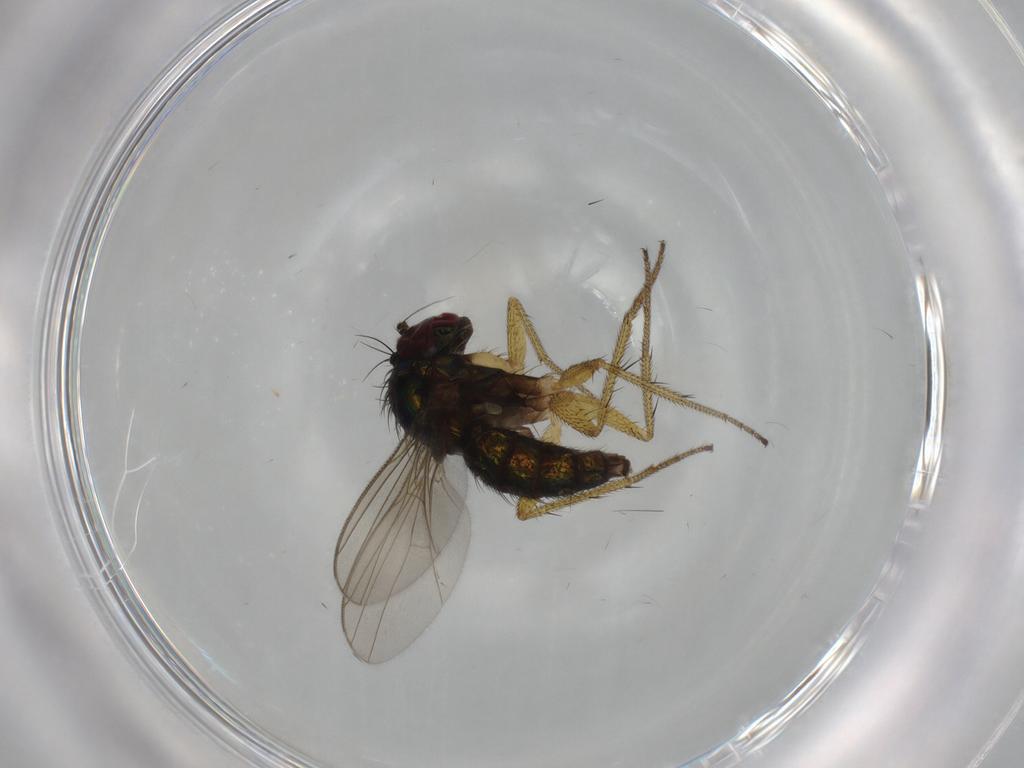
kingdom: Animalia
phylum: Arthropoda
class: Insecta
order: Diptera
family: Dolichopodidae
